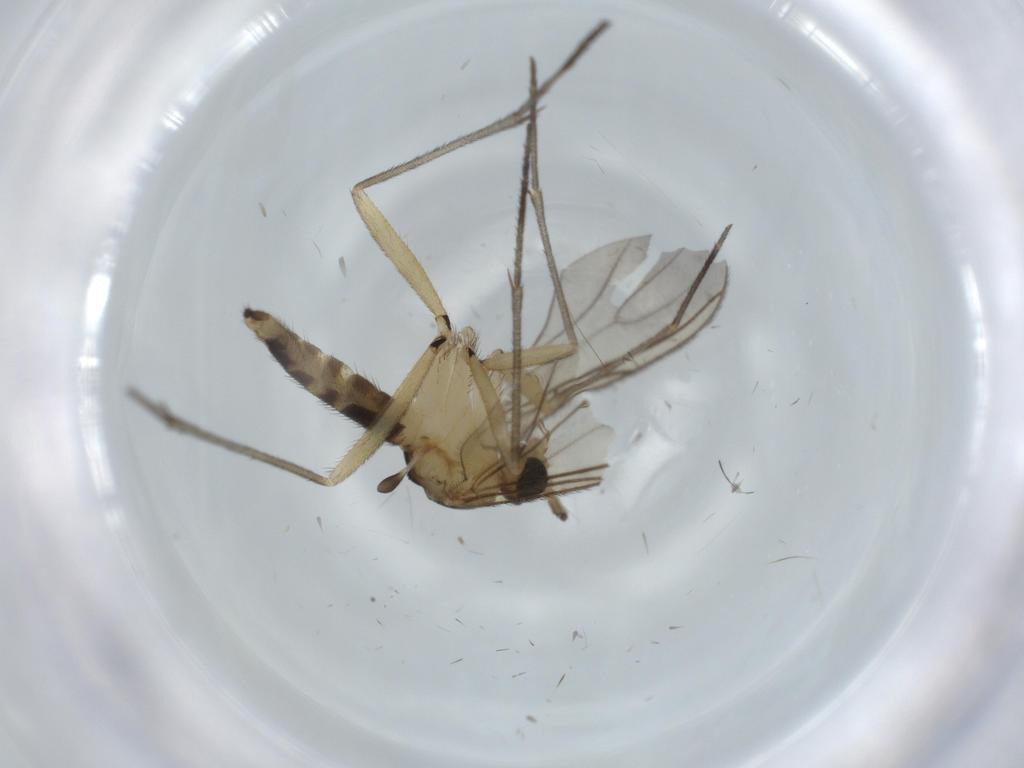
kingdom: Animalia
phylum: Arthropoda
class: Insecta
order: Diptera
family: Sciaridae
